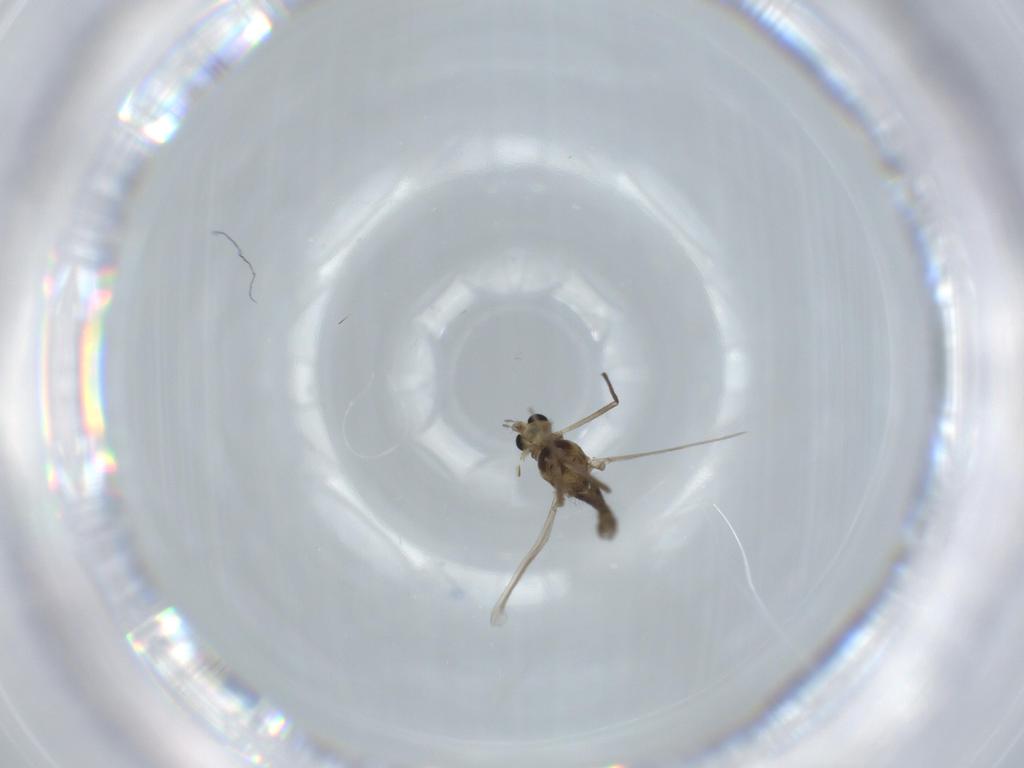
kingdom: Animalia
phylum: Arthropoda
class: Insecta
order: Diptera
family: Chironomidae
